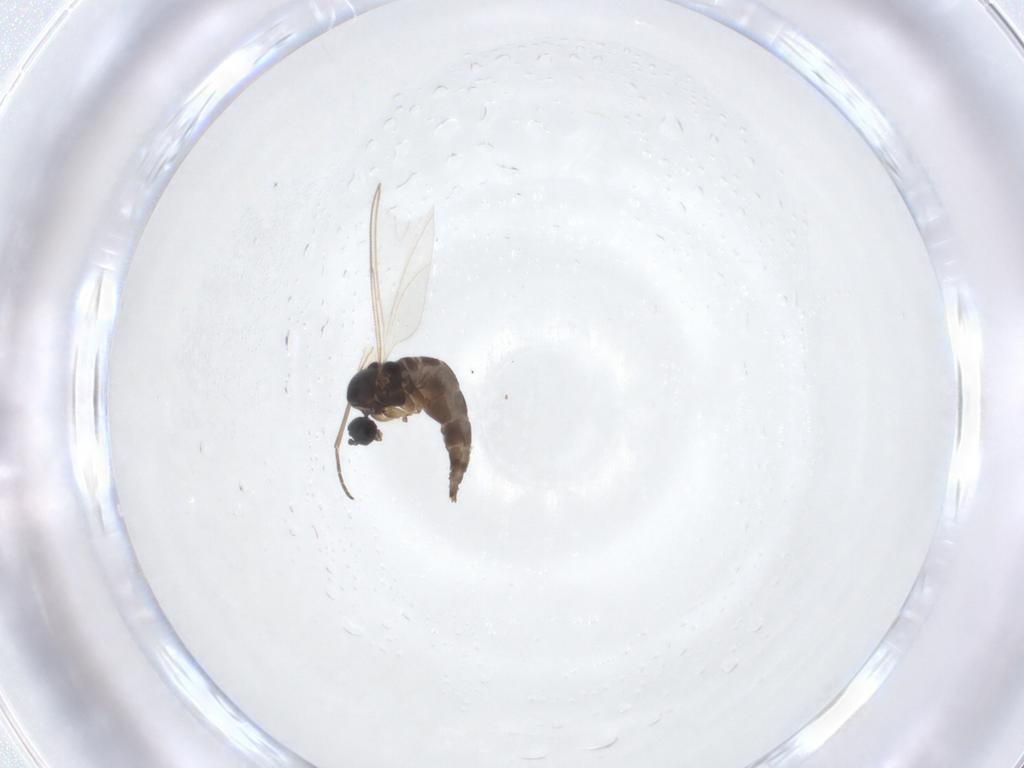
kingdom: Animalia
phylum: Arthropoda
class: Insecta
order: Diptera
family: Sciaridae
